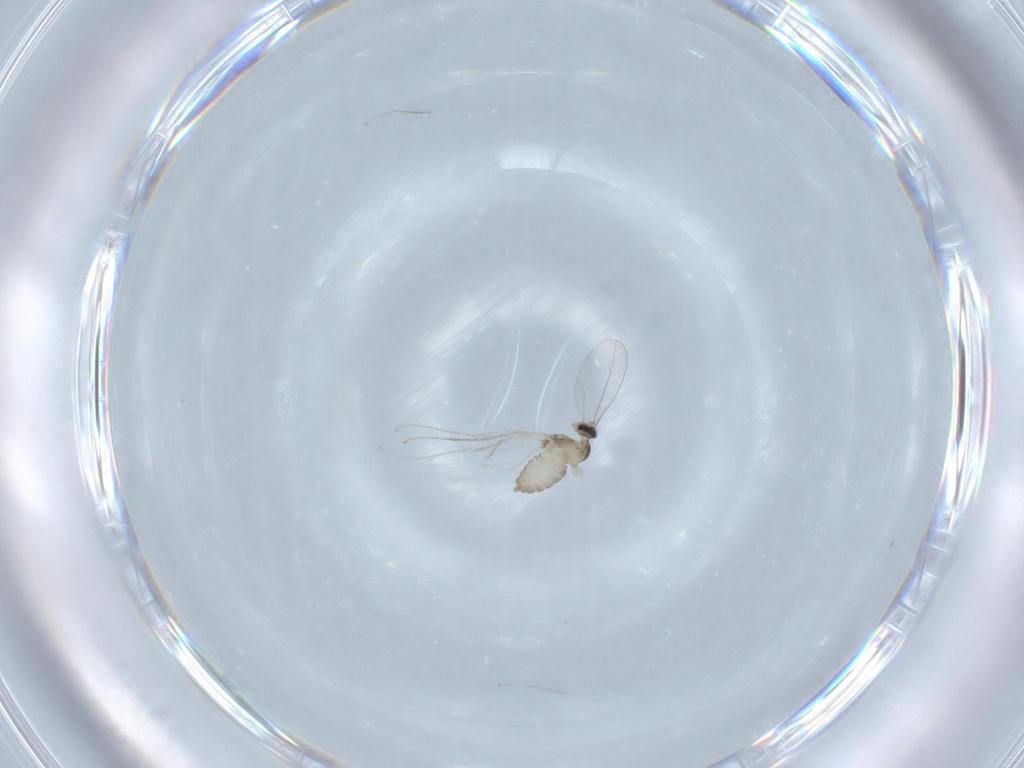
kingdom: Animalia
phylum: Arthropoda
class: Insecta
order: Diptera
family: Cecidomyiidae
